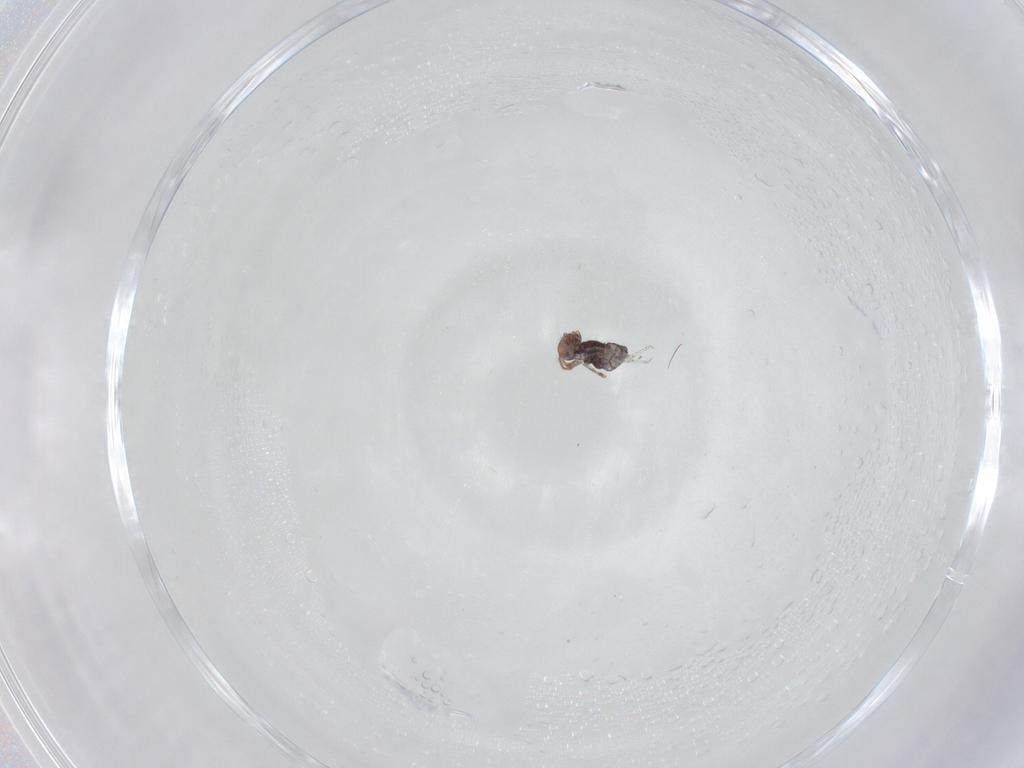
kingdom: Animalia
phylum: Arthropoda
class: Collembola
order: Symphypleona
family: Bourletiellidae
